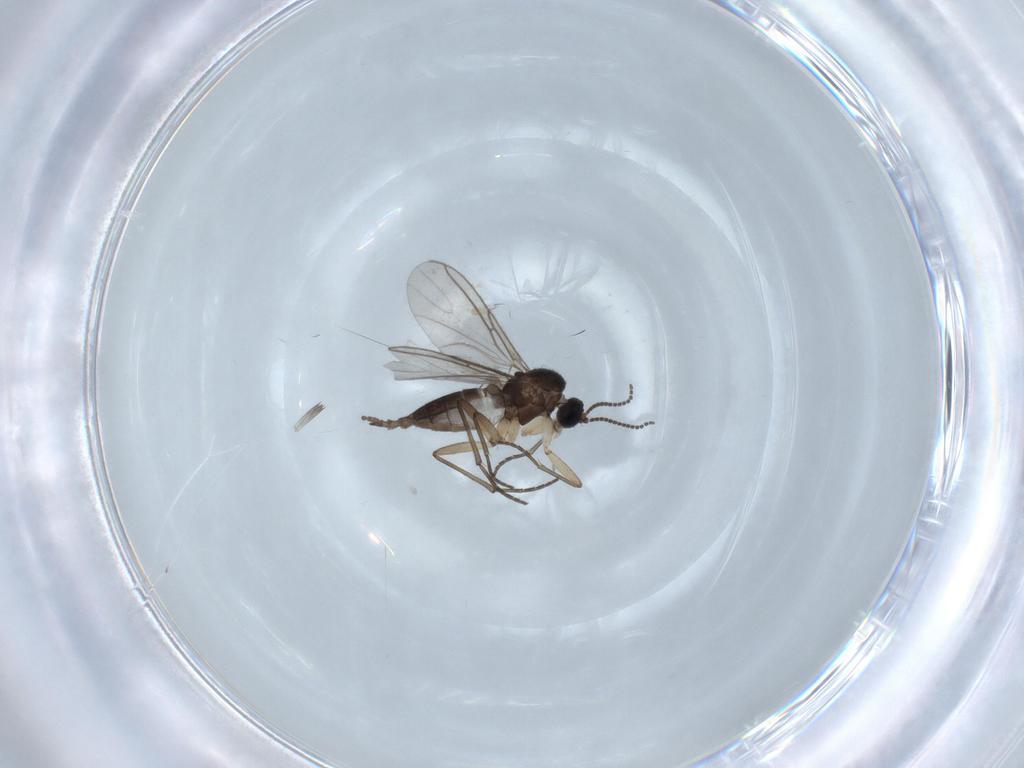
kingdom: Animalia
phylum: Arthropoda
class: Insecta
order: Diptera
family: Sciaridae
